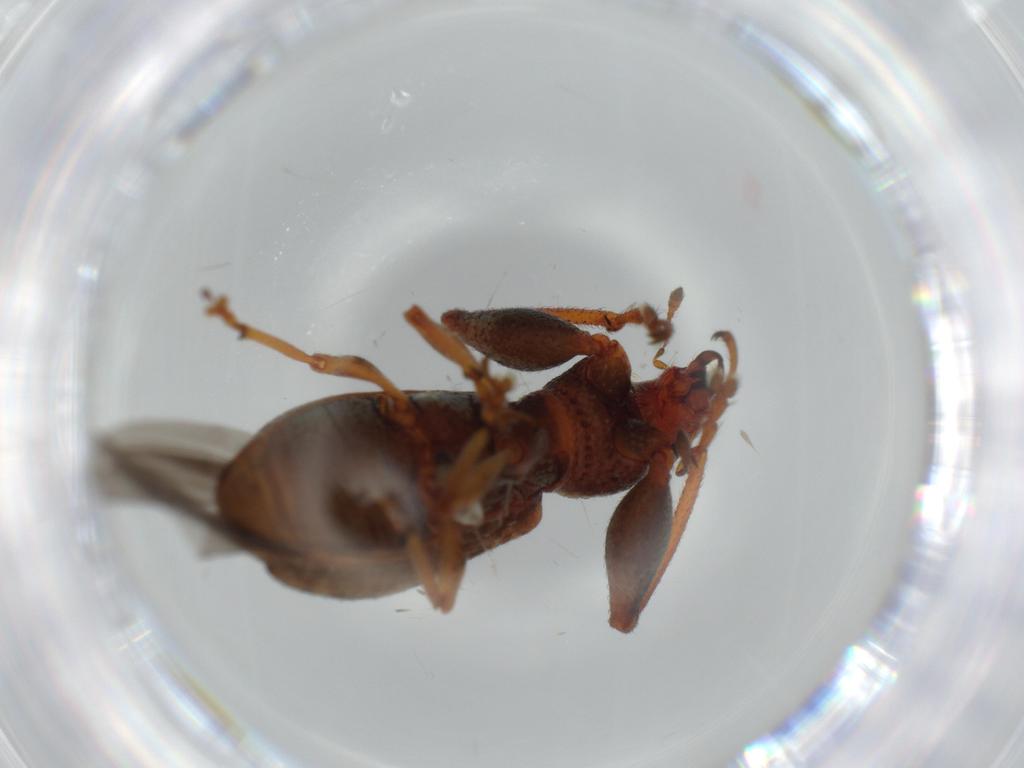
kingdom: Animalia
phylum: Arthropoda
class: Insecta
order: Coleoptera
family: Curculionidae
